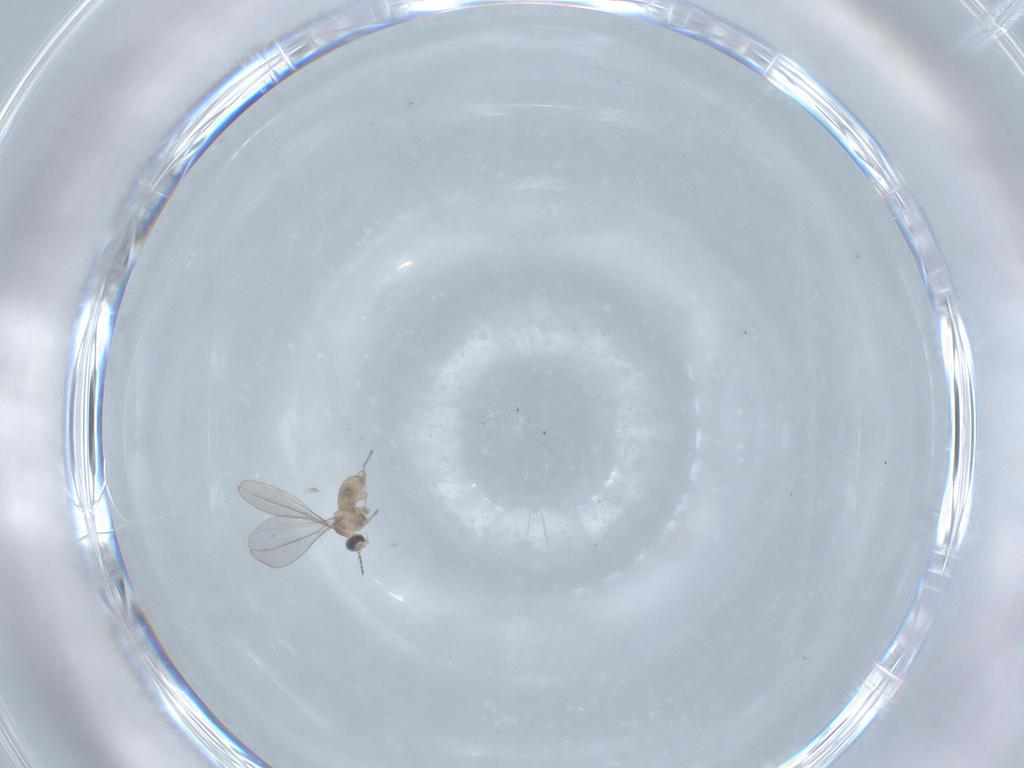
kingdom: Animalia
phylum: Arthropoda
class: Insecta
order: Diptera
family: Cecidomyiidae
